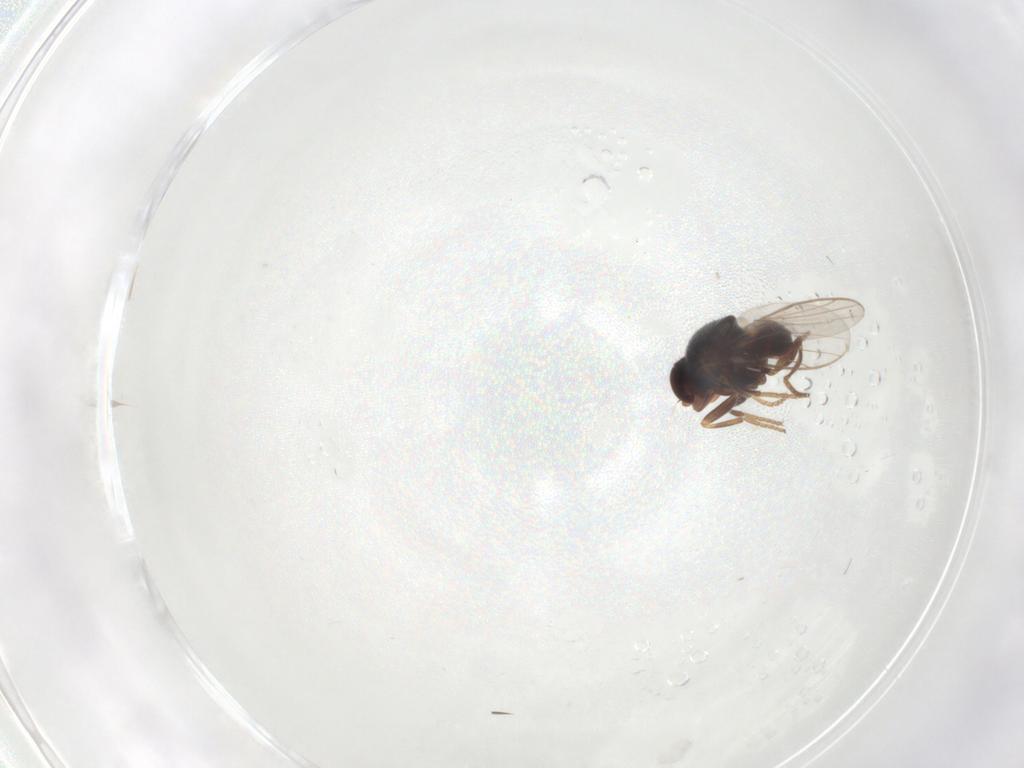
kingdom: Animalia
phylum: Arthropoda
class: Insecta
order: Diptera
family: Chloropidae
